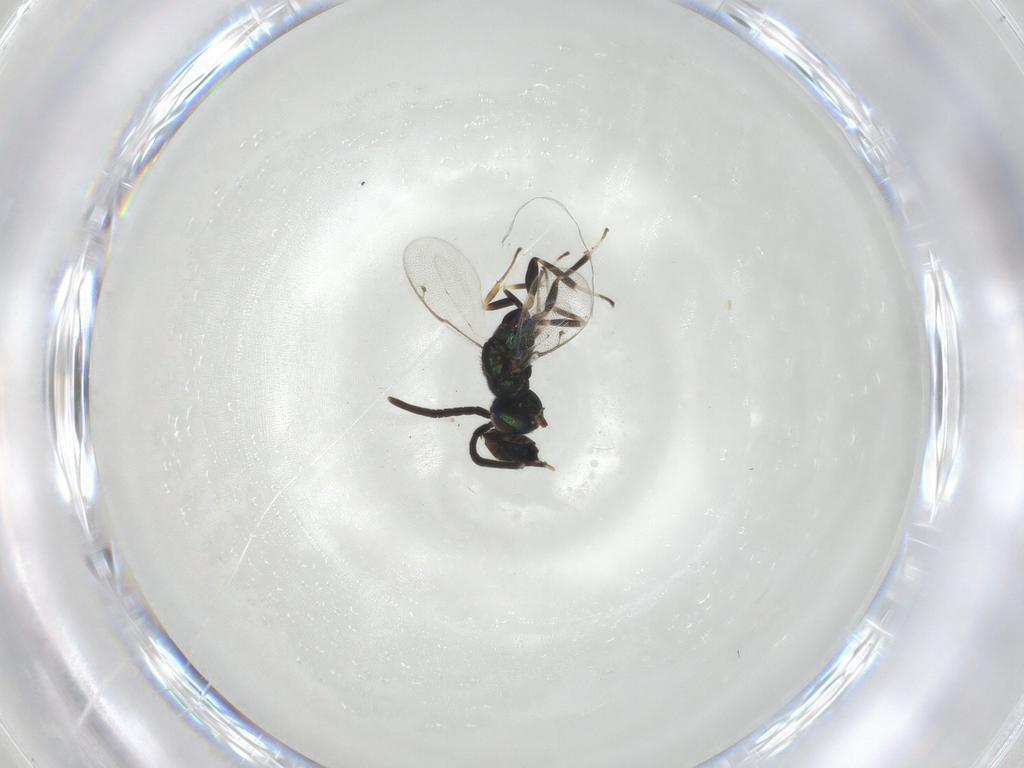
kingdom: Animalia
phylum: Arthropoda
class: Insecta
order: Hymenoptera
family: Eupelmidae
